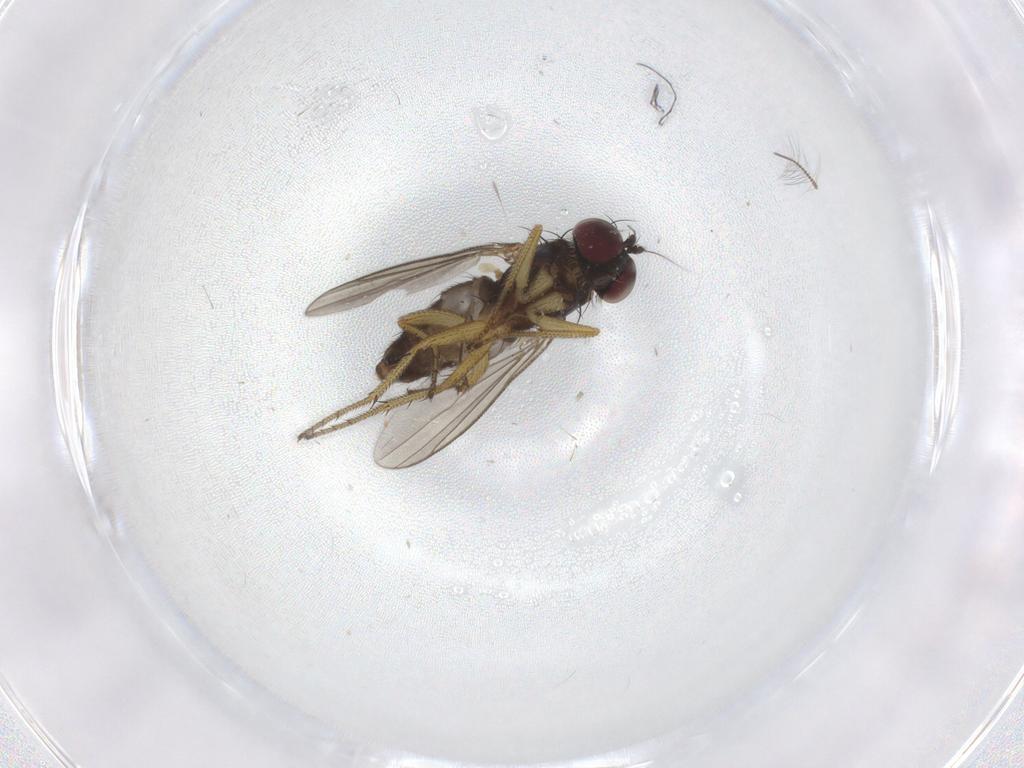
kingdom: Animalia
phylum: Arthropoda
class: Insecta
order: Diptera
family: Dolichopodidae
